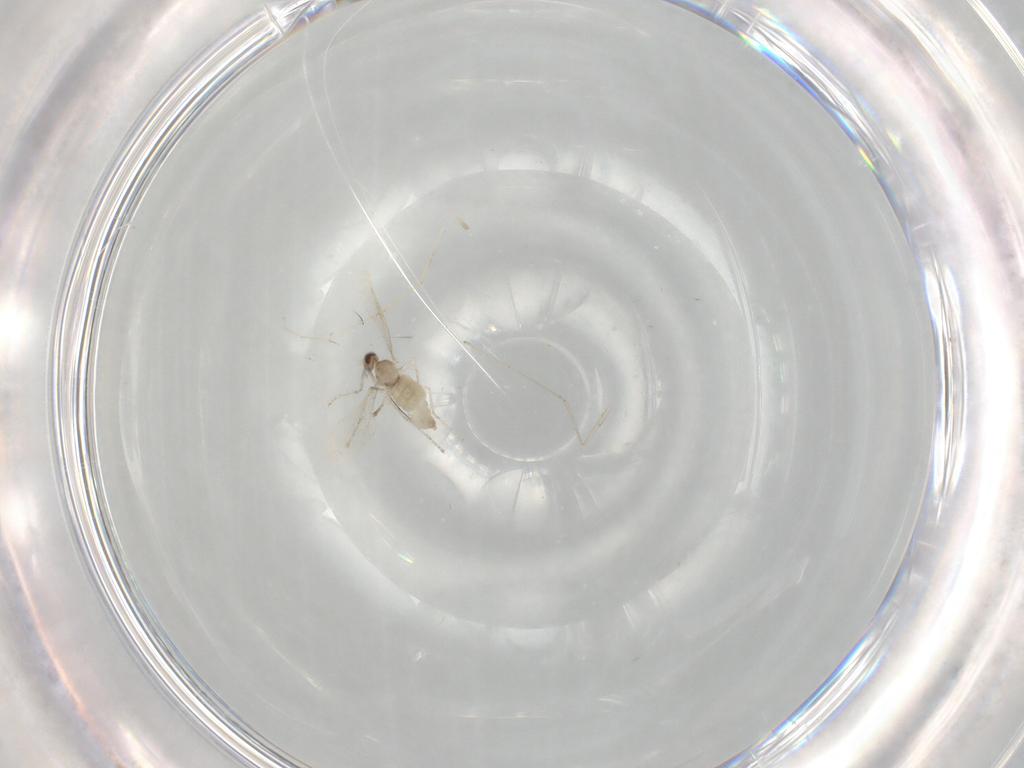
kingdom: Animalia
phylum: Arthropoda
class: Insecta
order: Diptera
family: Cecidomyiidae
